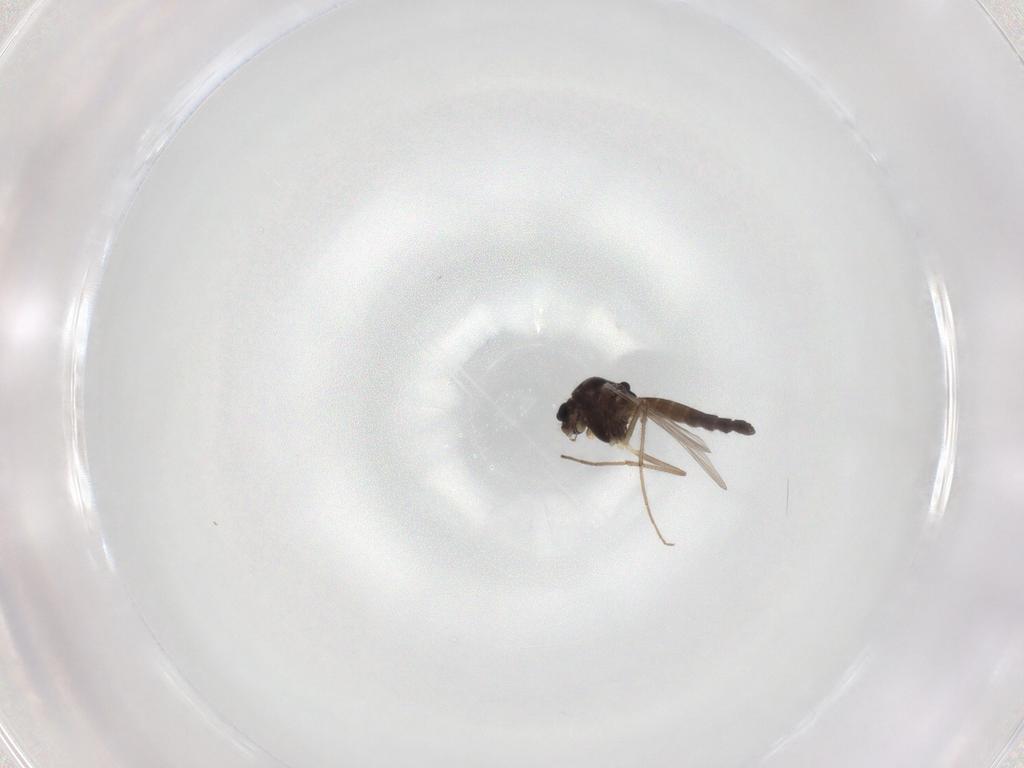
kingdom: Animalia
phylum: Arthropoda
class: Insecta
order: Diptera
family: Chironomidae
